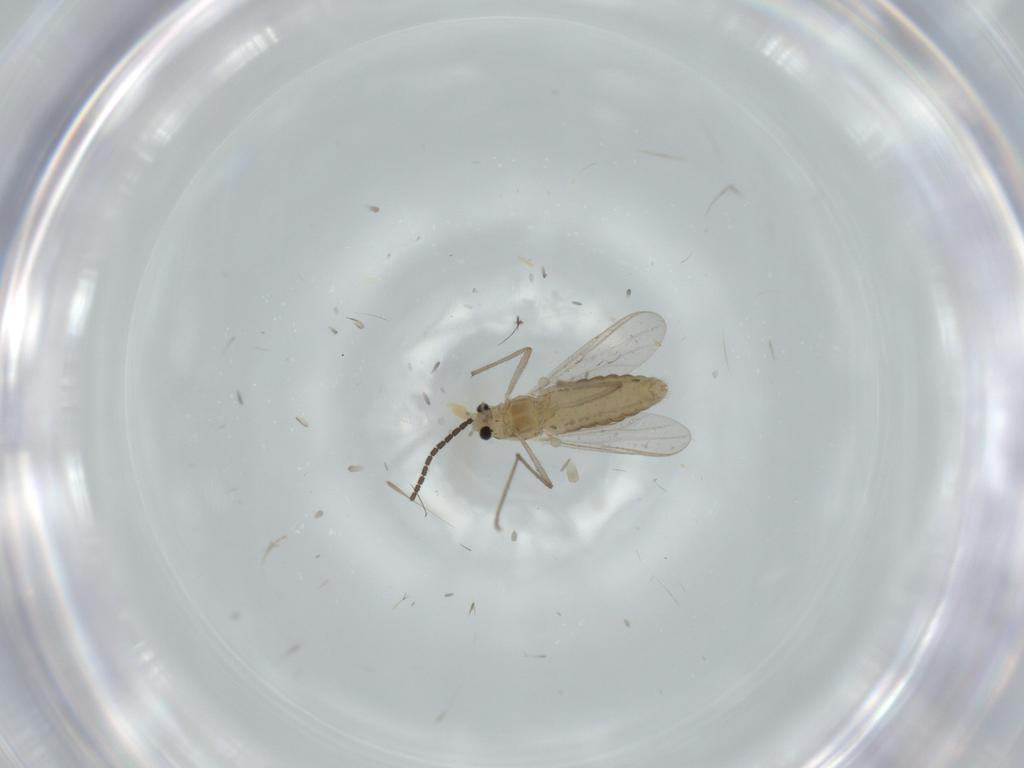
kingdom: Animalia
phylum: Arthropoda
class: Insecta
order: Diptera
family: Chironomidae
